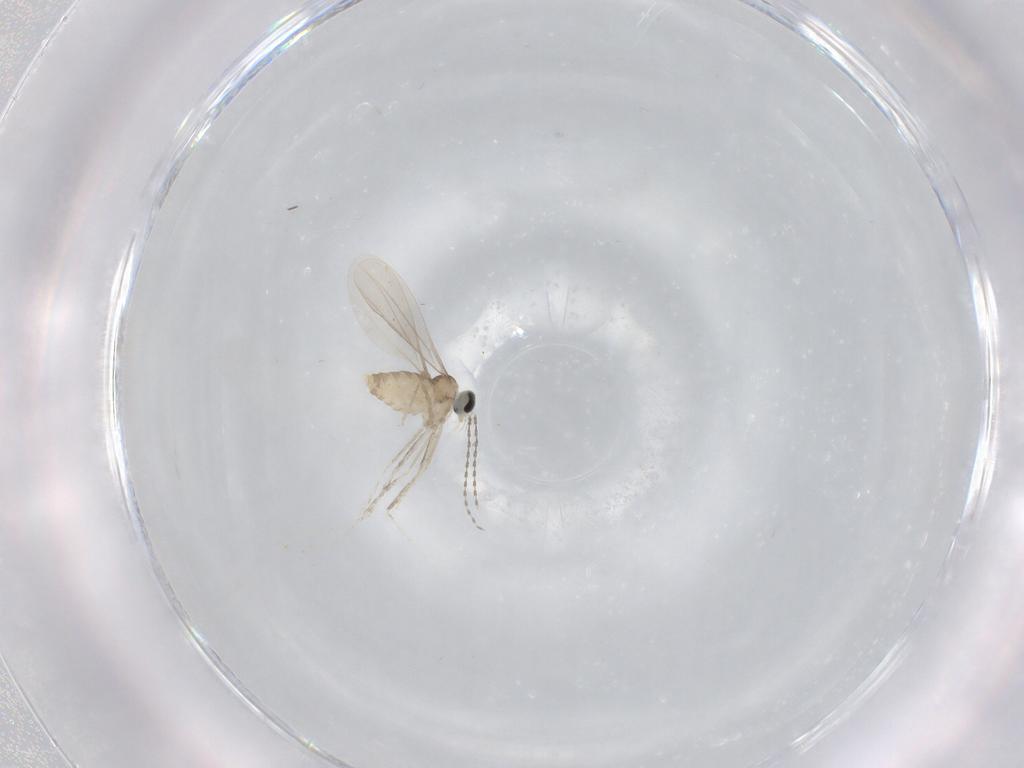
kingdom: Animalia
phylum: Arthropoda
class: Insecta
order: Diptera
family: Cecidomyiidae
